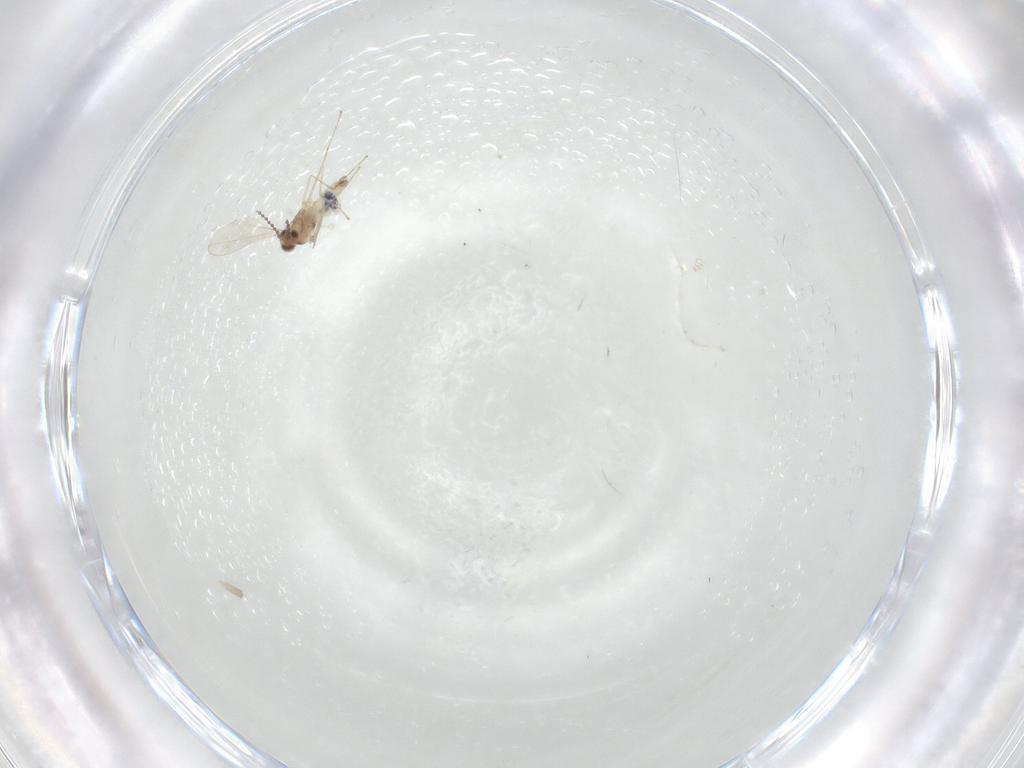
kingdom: Animalia
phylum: Arthropoda
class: Insecta
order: Diptera
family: Cecidomyiidae
